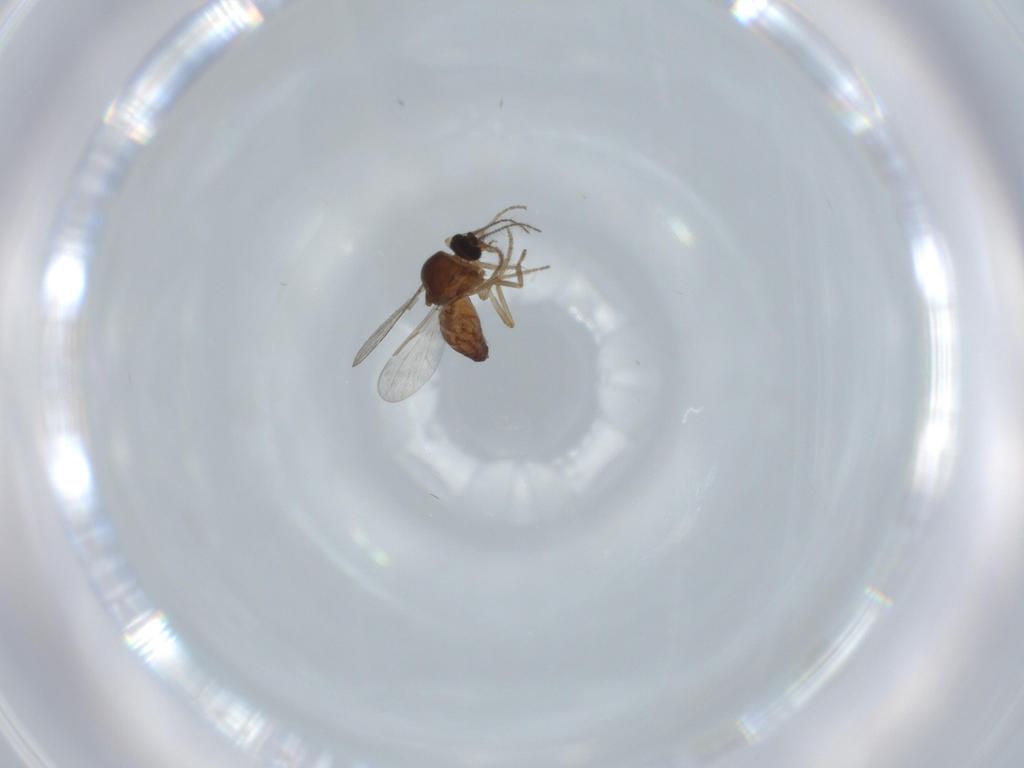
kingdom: Animalia
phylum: Arthropoda
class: Insecta
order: Diptera
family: Ceratopogonidae
